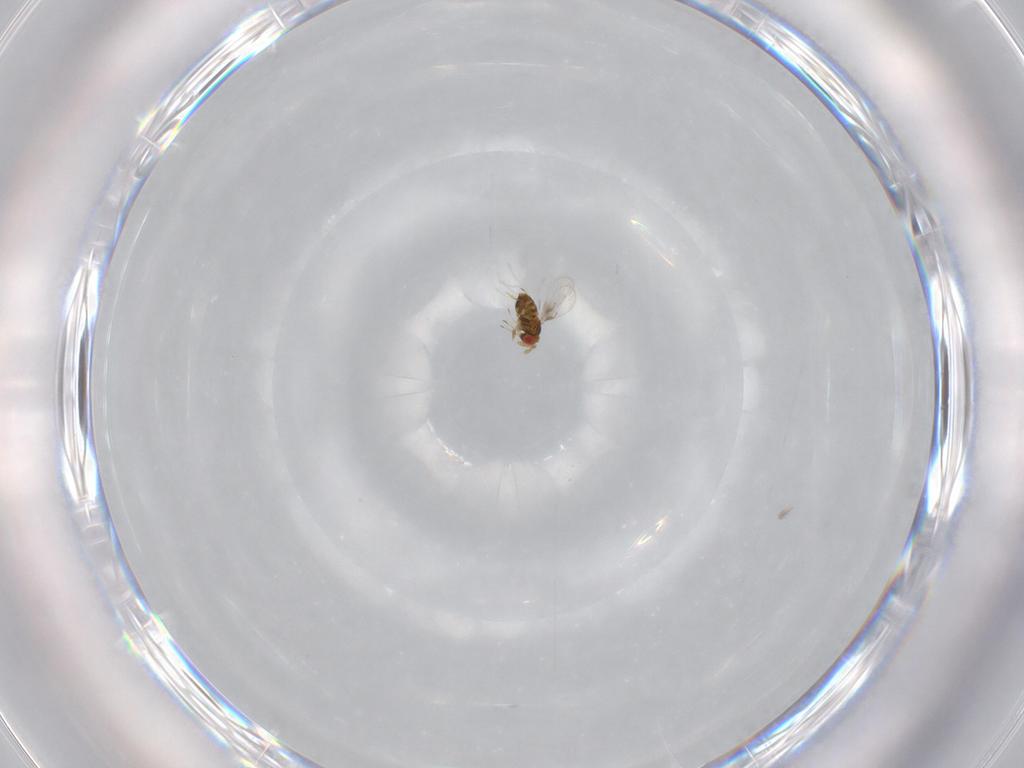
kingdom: Animalia
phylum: Arthropoda
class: Insecta
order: Hymenoptera
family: Trichogrammatidae
